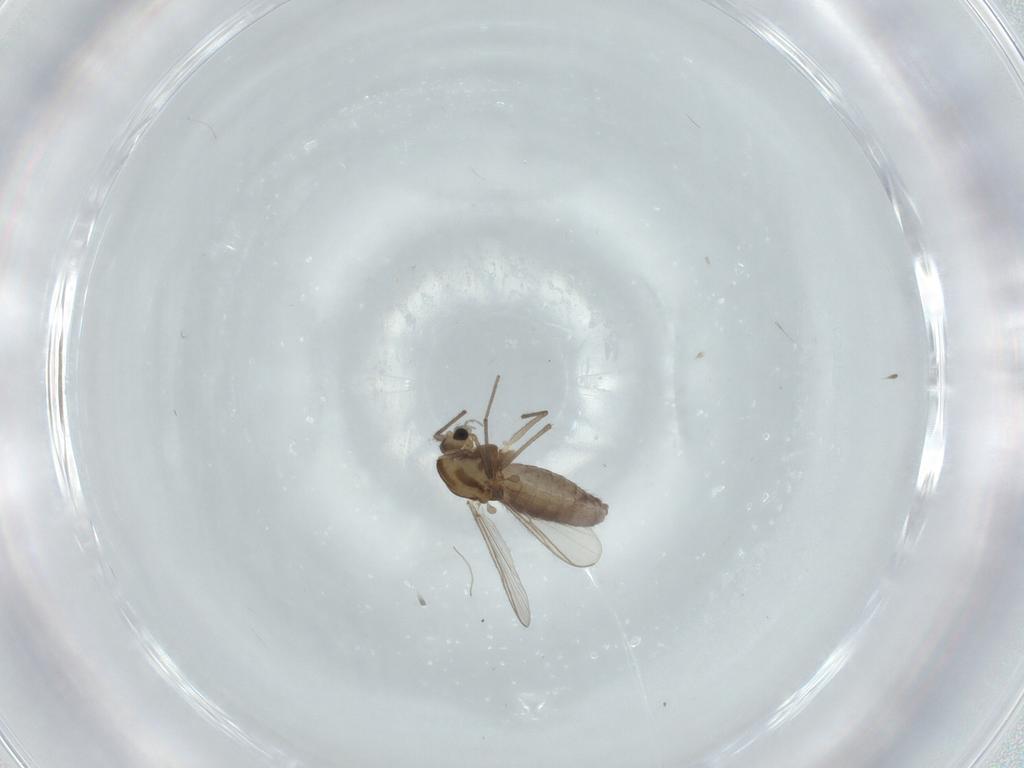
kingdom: Animalia
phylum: Arthropoda
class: Insecta
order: Diptera
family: Chironomidae
